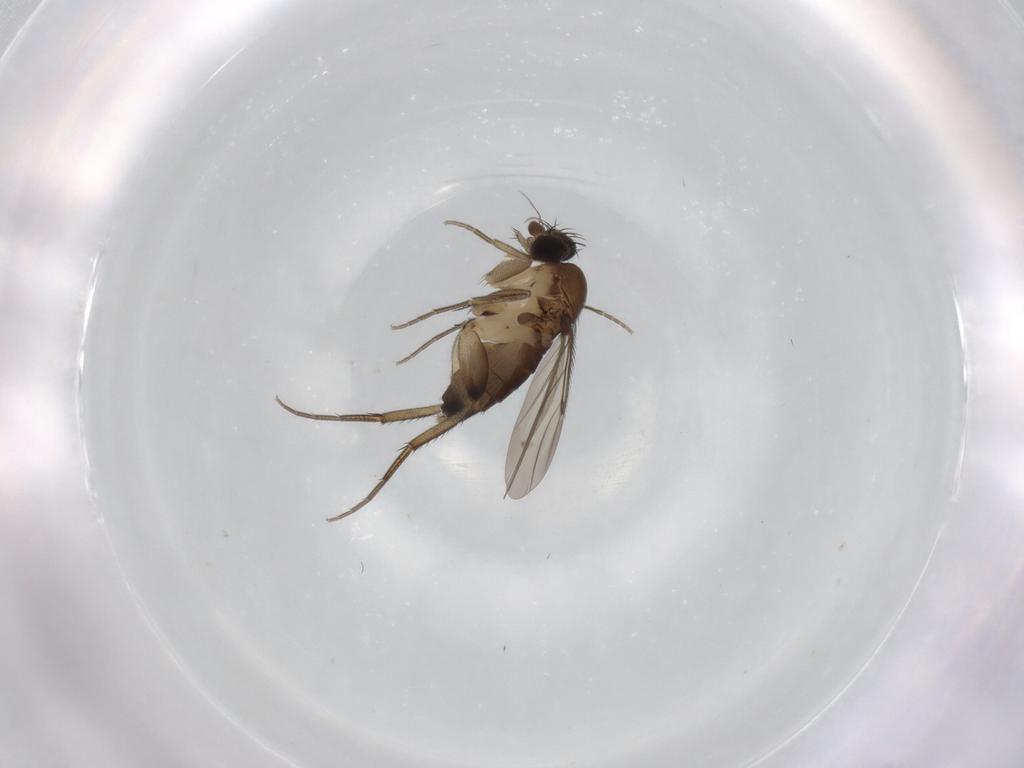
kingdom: Animalia
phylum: Arthropoda
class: Insecta
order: Diptera
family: Phoridae
